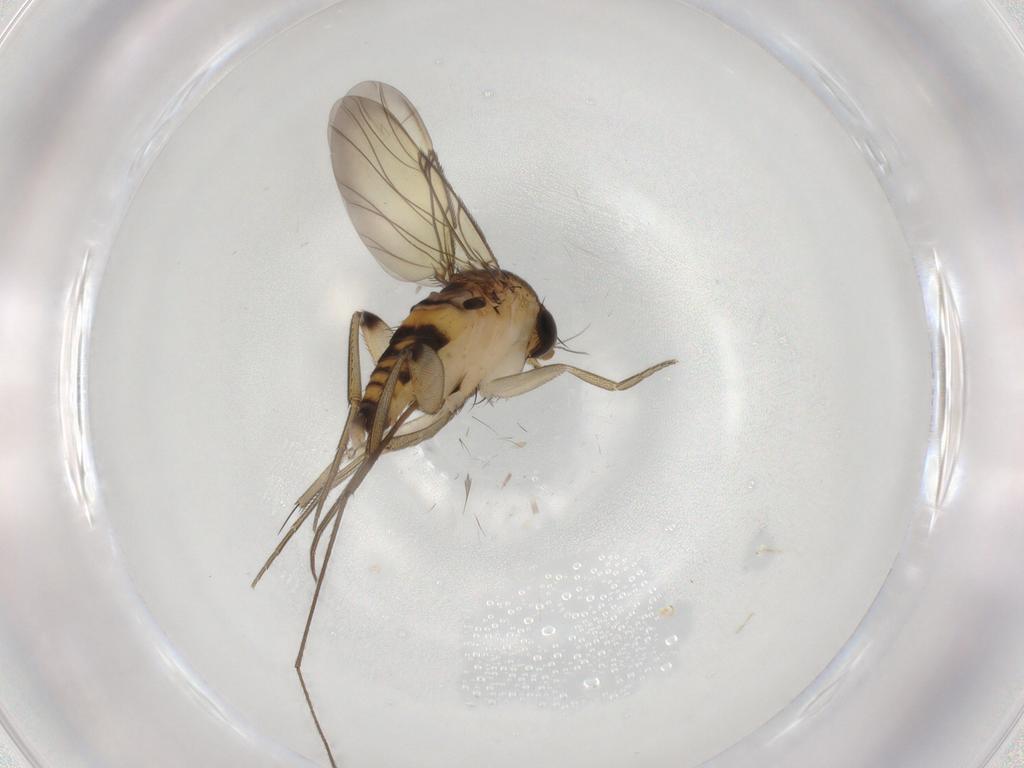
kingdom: Animalia
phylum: Arthropoda
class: Insecta
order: Diptera
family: Phoridae
